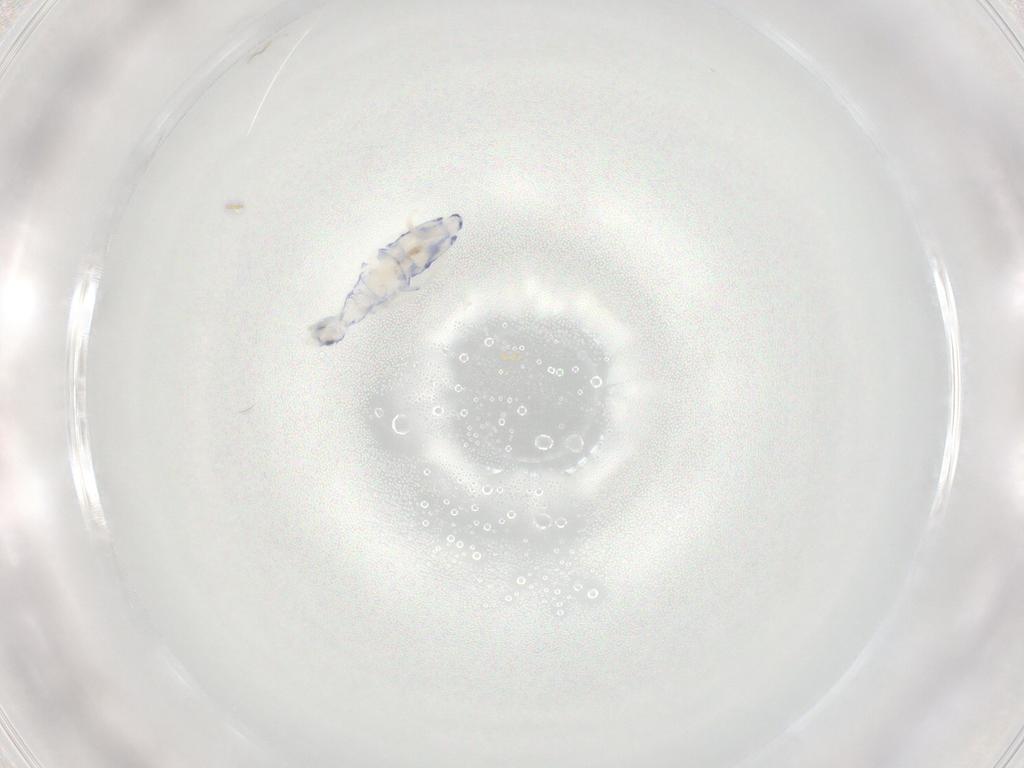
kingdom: Animalia
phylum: Arthropoda
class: Collembola
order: Entomobryomorpha
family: Entomobryidae
